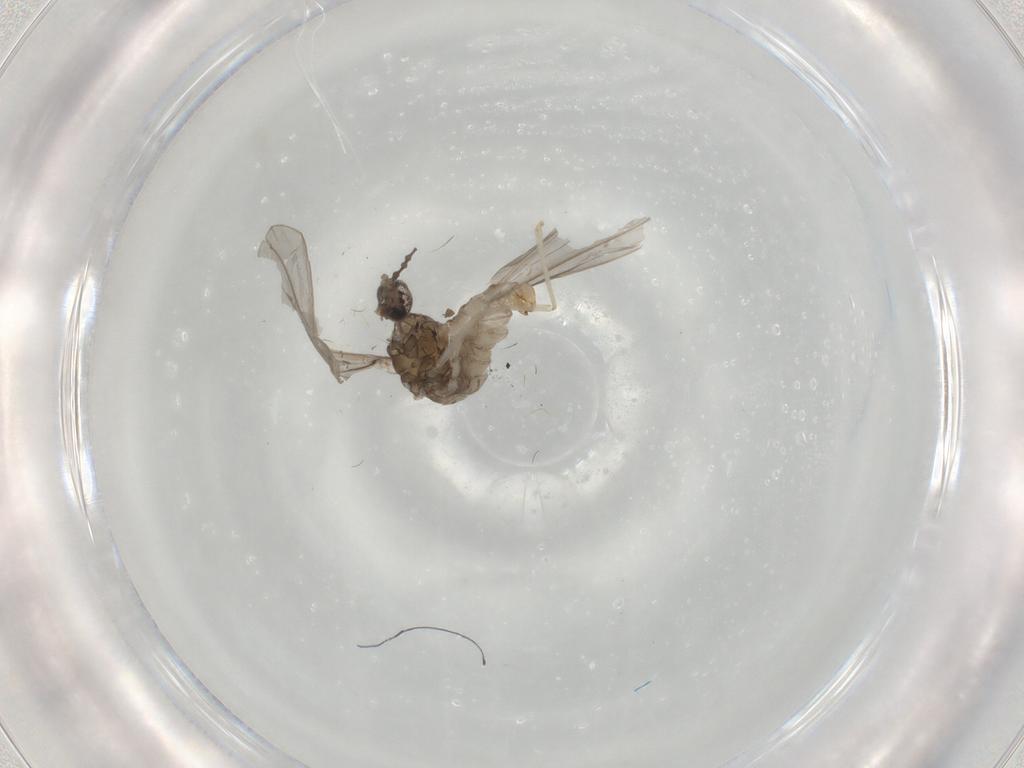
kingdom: Animalia
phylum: Arthropoda
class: Insecta
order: Diptera
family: Cecidomyiidae
